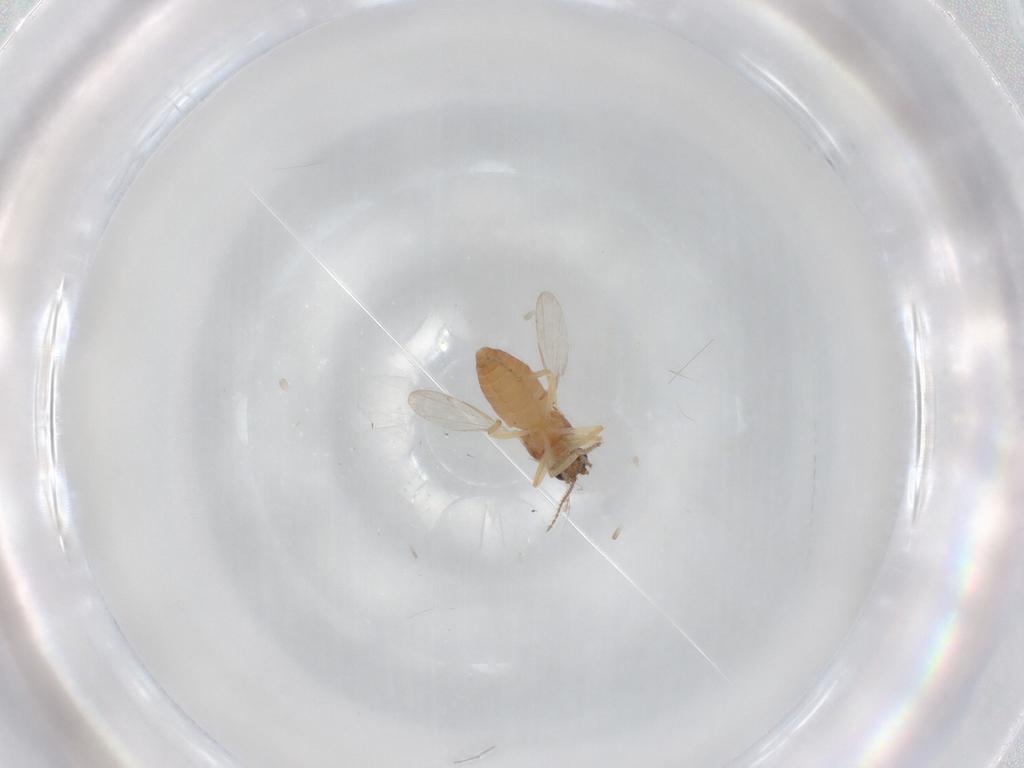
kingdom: Animalia
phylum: Arthropoda
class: Insecta
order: Diptera
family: Ceratopogonidae
